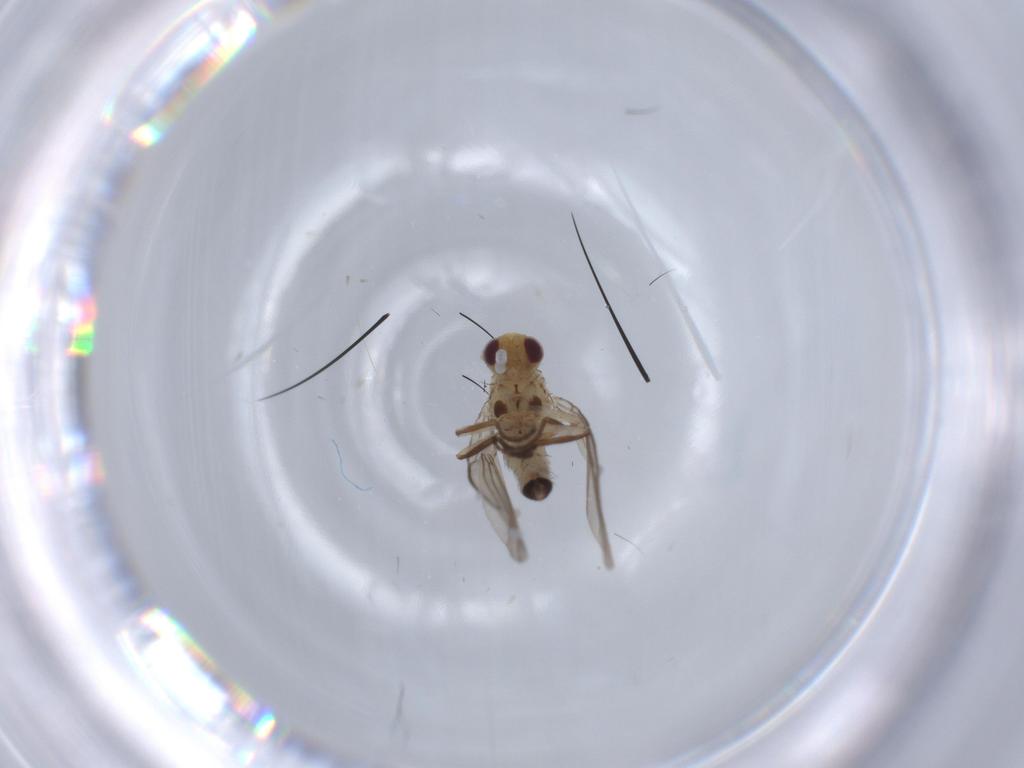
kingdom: Animalia
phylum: Arthropoda
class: Insecta
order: Diptera
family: Agromyzidae
